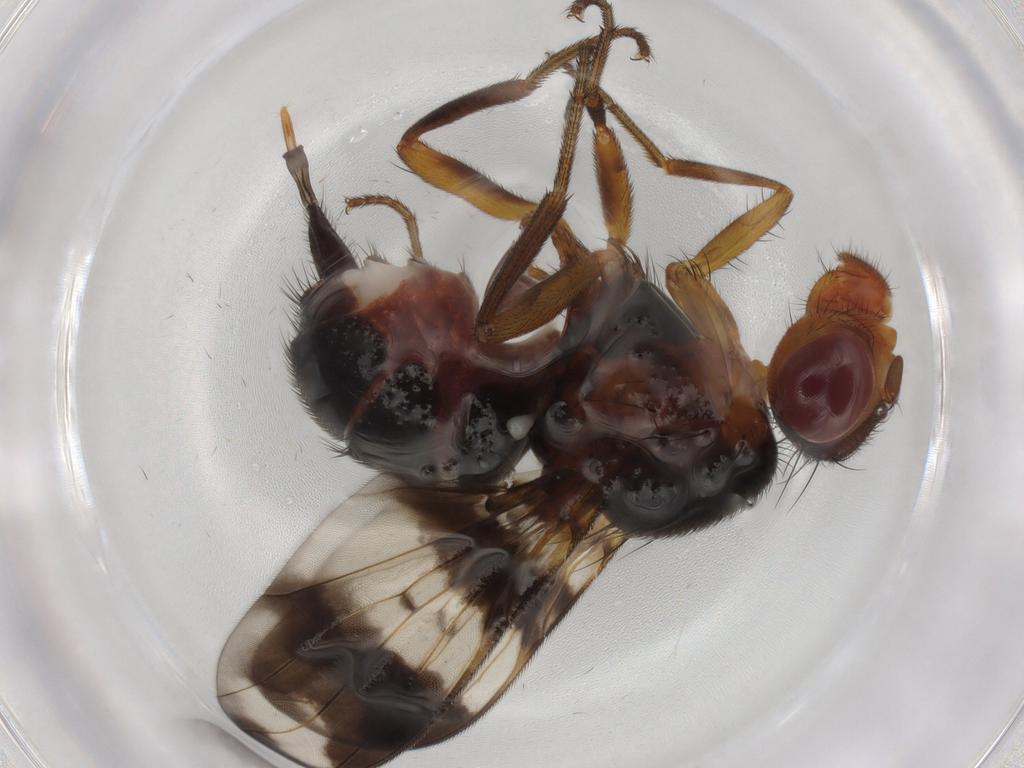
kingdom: Animalia
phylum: Arthropoda
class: Insecta
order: Diptera
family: Richardiidae
